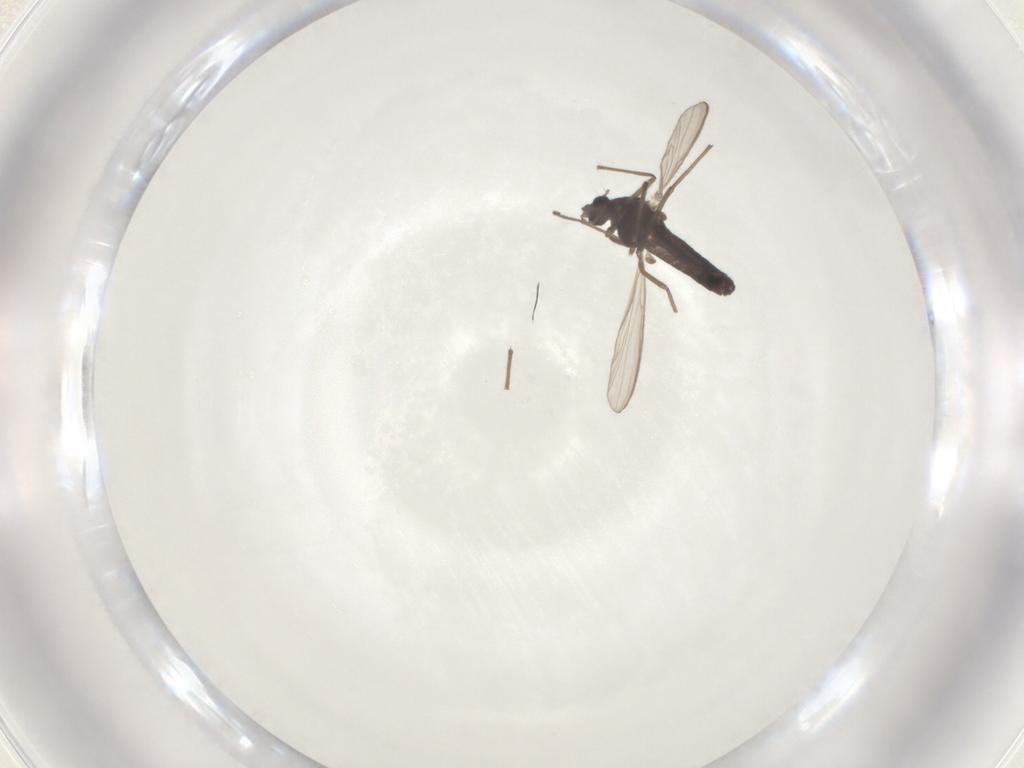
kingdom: Animalia
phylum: Arthropoda
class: Insecta
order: Diptera
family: Chironomidae
